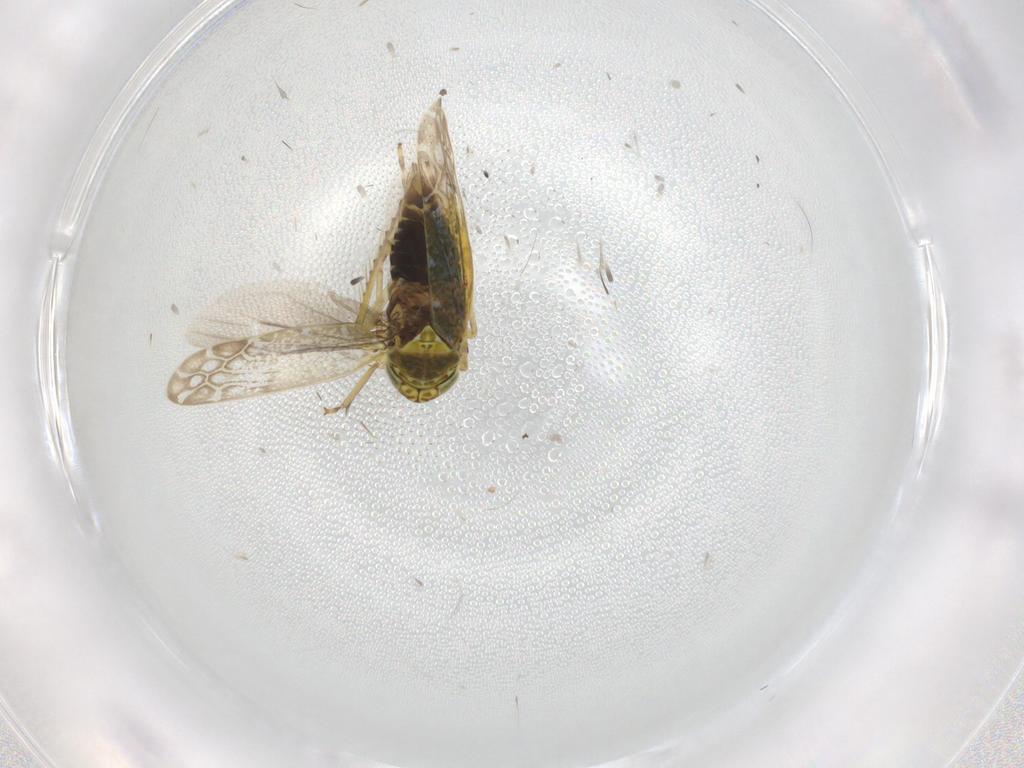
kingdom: Animalia
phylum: Arthropoda
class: Insecta
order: Hemiptera
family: Cicadellidae
